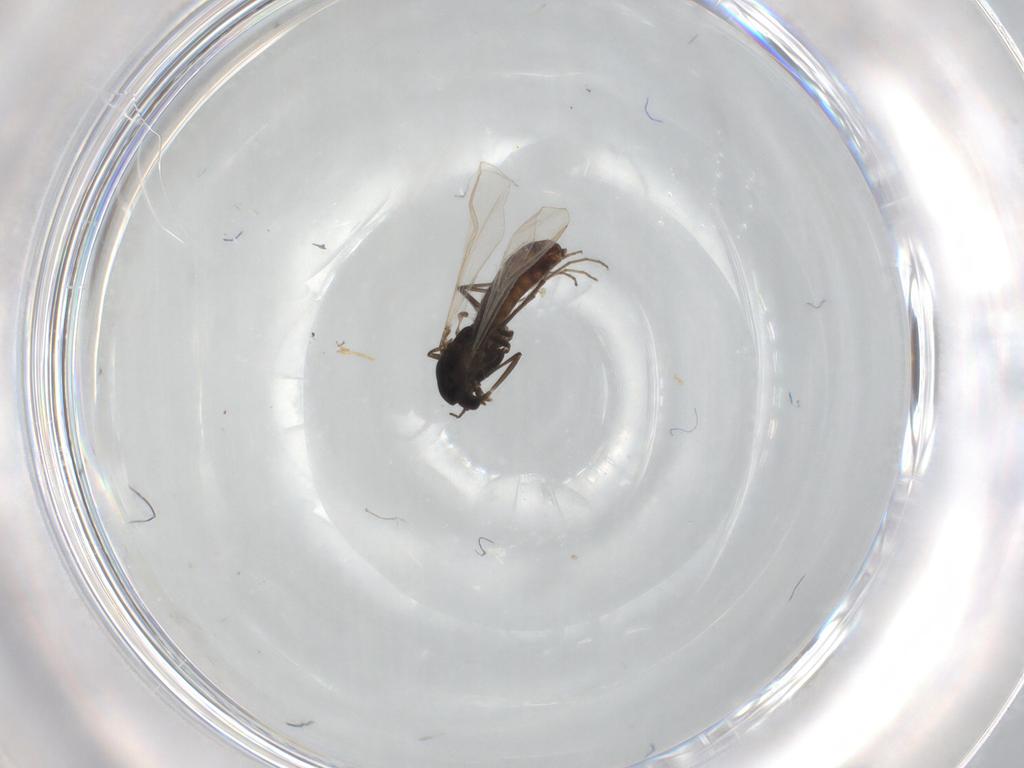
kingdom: Animalia
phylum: Arthropoda
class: Insecta
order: Diptera
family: Chironomidae
